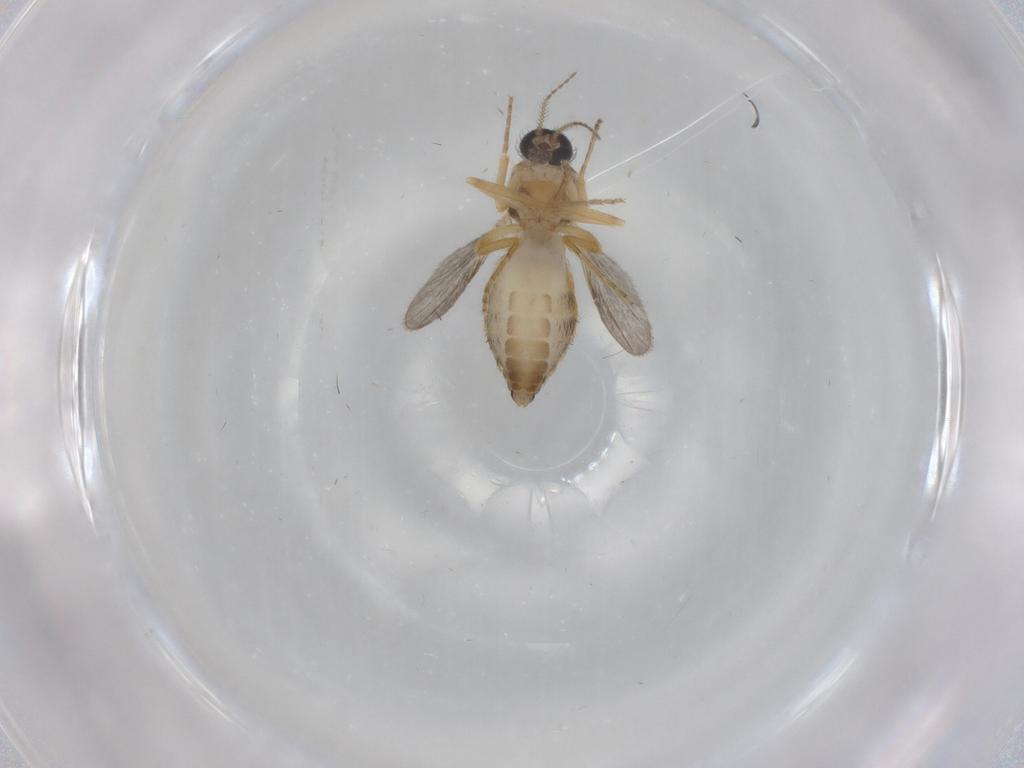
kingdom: Animalia
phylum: Arthropoda
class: Insecta
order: Diptera
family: Ceratopogonidae
